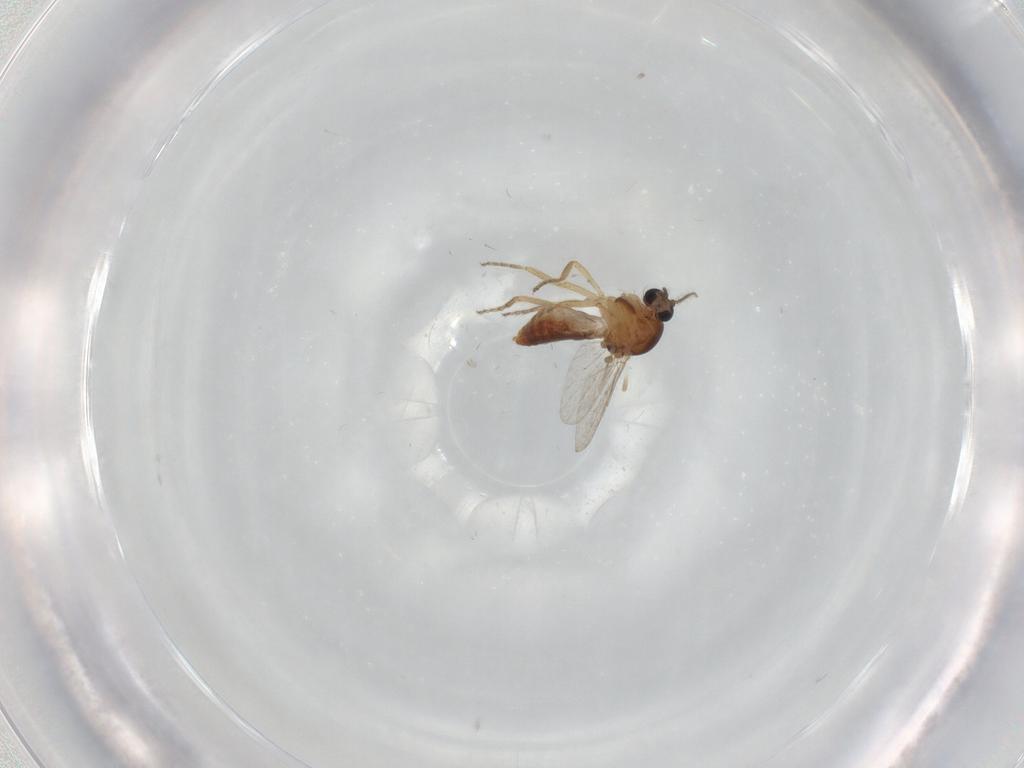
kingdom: Animalia
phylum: Arthropoda
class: Insecta
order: Diptera
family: Ceratopogonidae
